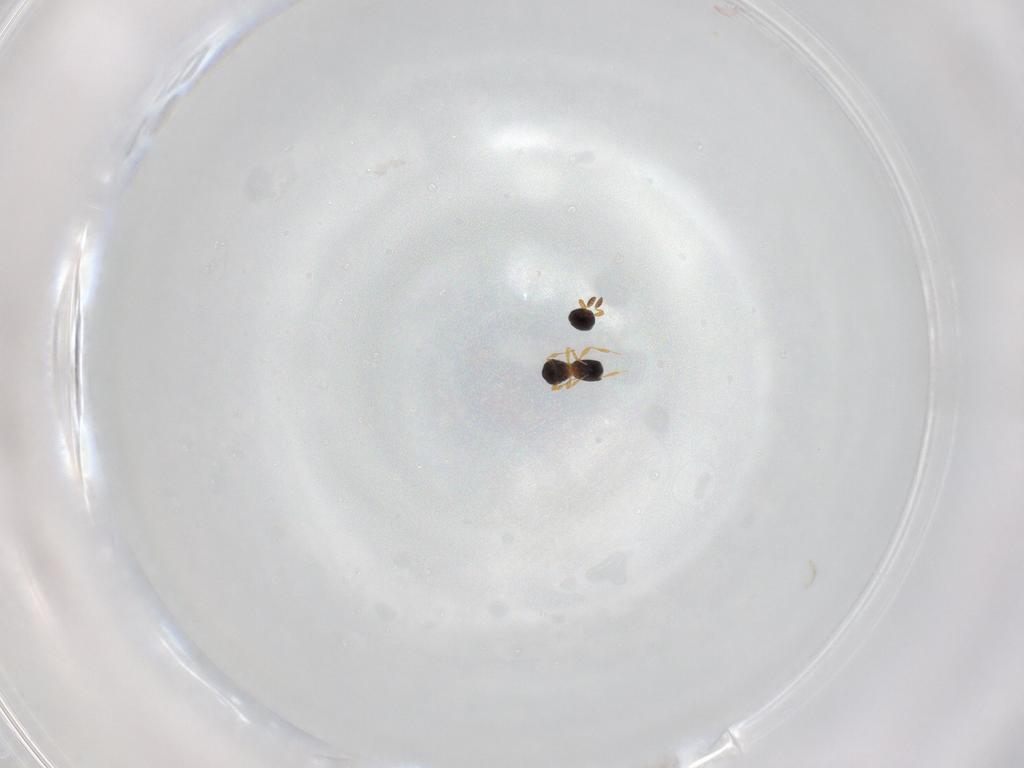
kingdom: Animalia
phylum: Arthropoda
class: Insecta
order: Hymenoptera
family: Platygastridae
